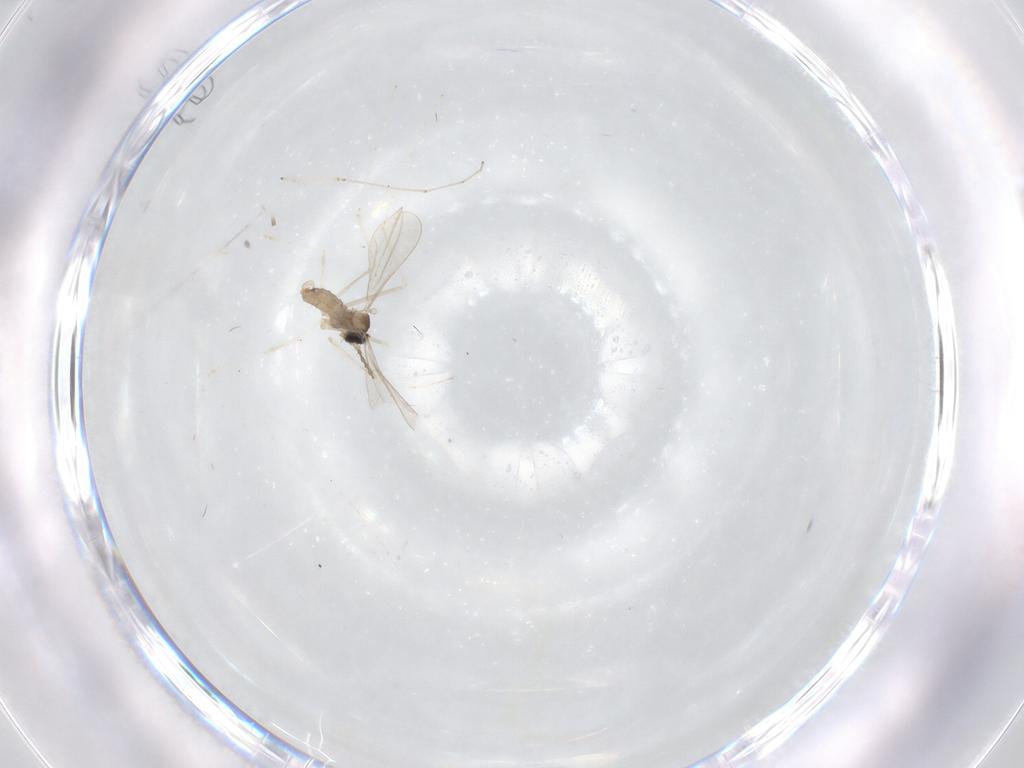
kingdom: Animalia
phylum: Arthropoda
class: Insecta
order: Diptera
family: Cecidomyiidae
